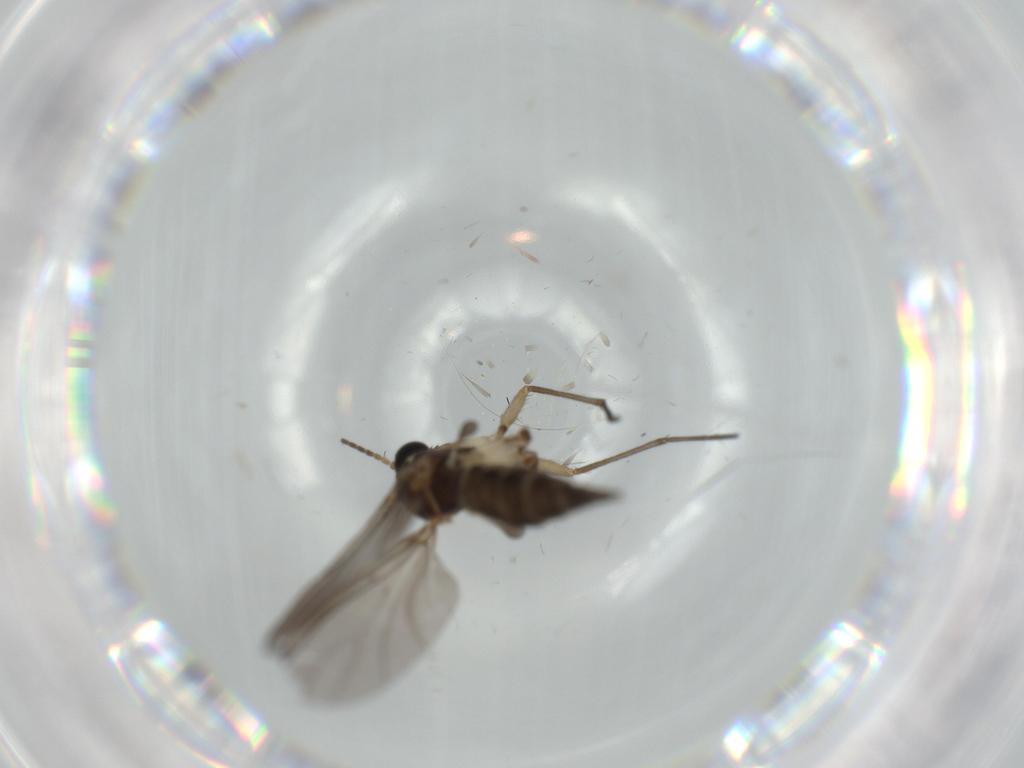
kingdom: Animalia
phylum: Arthropoda
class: Insecta
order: Diptera
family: Sciaridae
